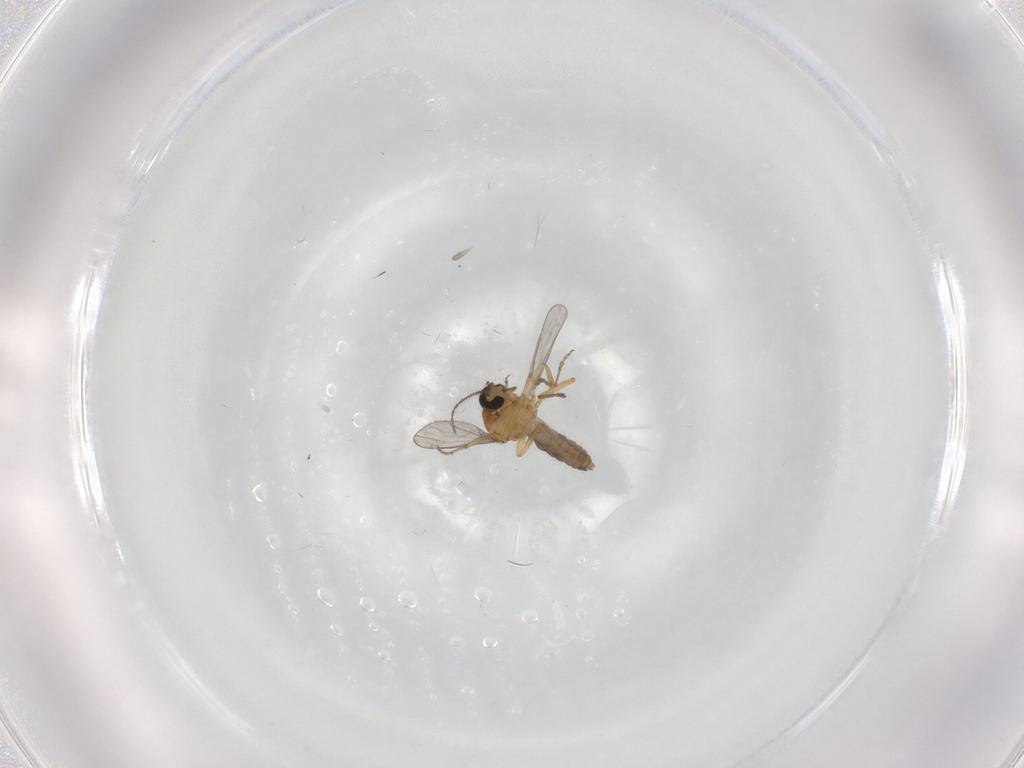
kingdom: Animalia
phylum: Arthropoda
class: Insecta
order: Diptera
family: Ceratopogonidae
